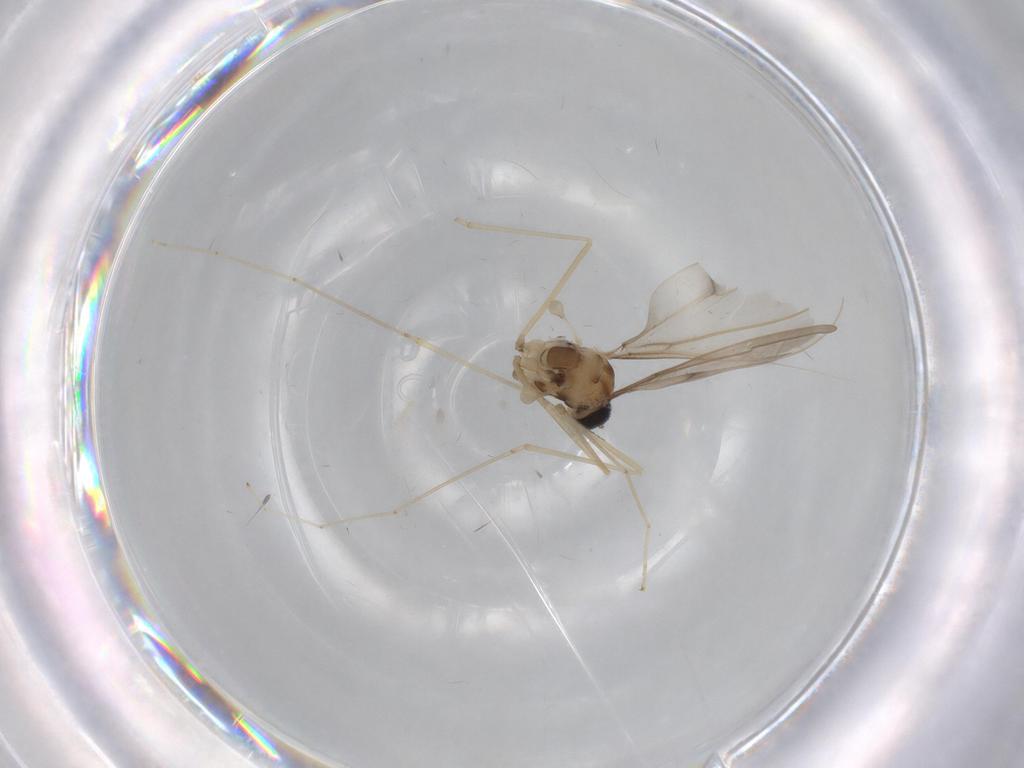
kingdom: Animalia
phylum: Arthropoda
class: Insecta
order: Diptera
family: Cecidomyiidae
